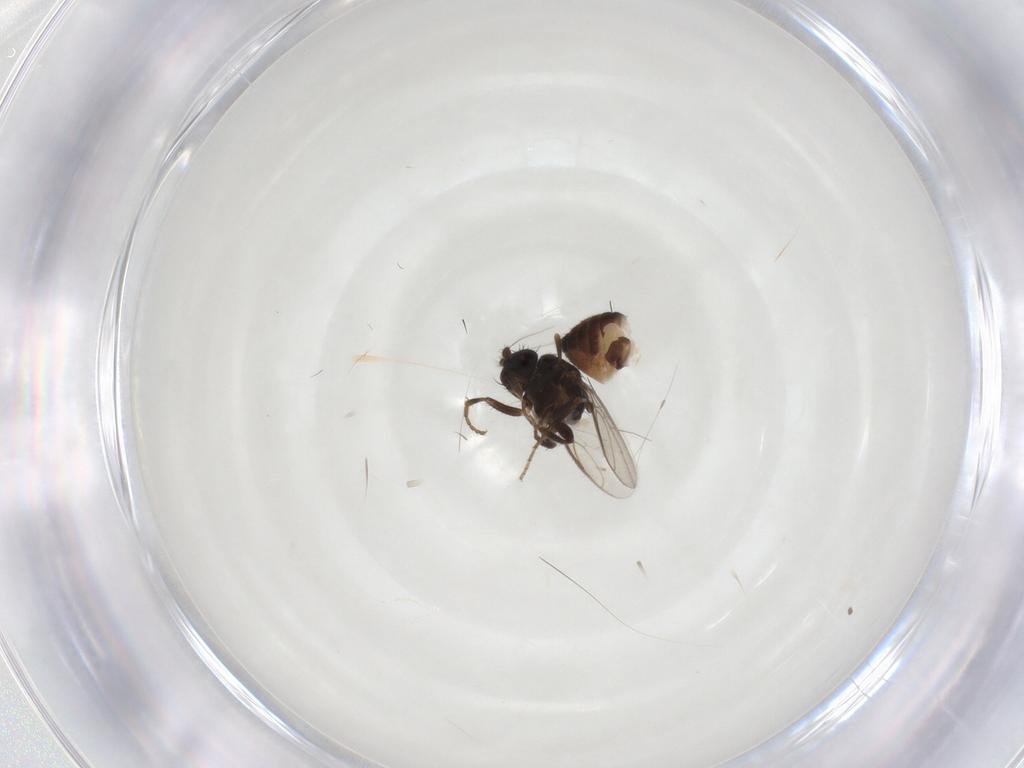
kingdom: Animalia
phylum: Arthropoda
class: Insecta
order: Diptera
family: Sphaeroceridae
